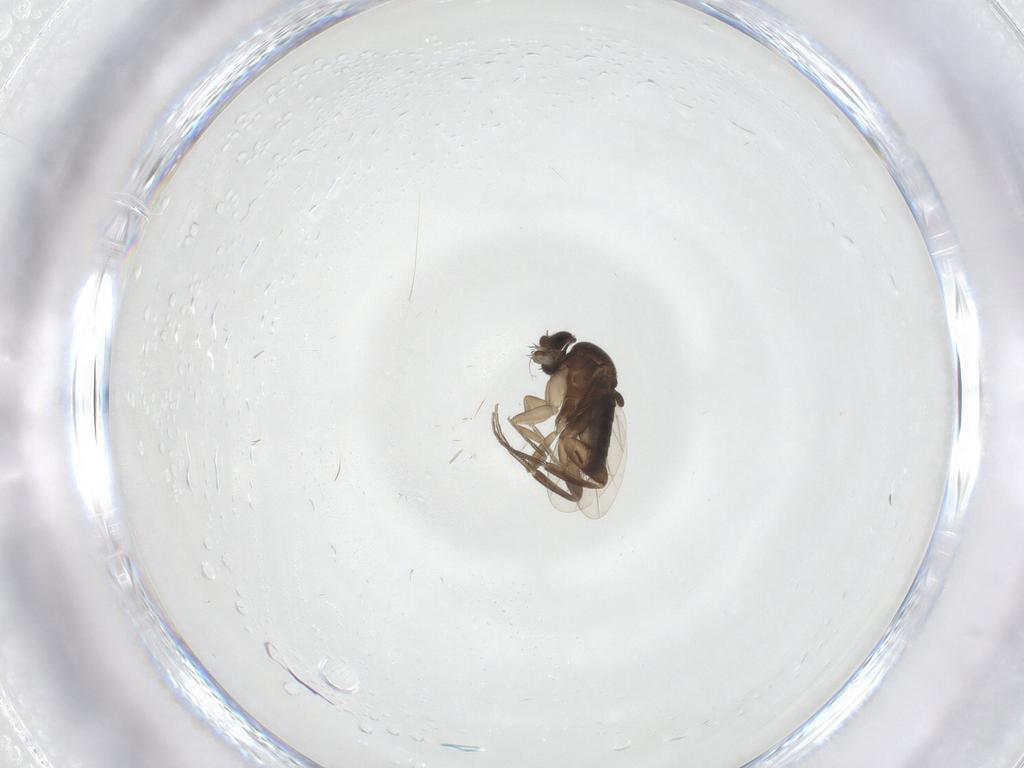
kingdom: Animalia
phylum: Arthropoda
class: Insecta
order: Diptera
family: Phoridae
